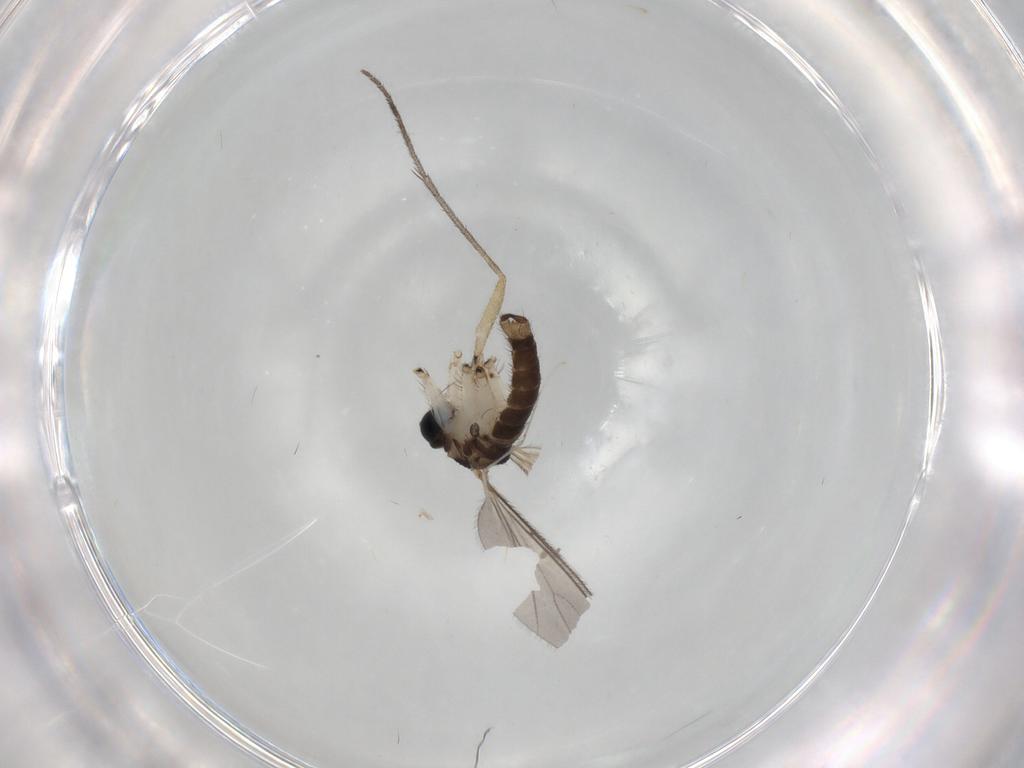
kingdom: Animalia
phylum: Arthropoda
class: Insecta
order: Diptera
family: Sciaridae
